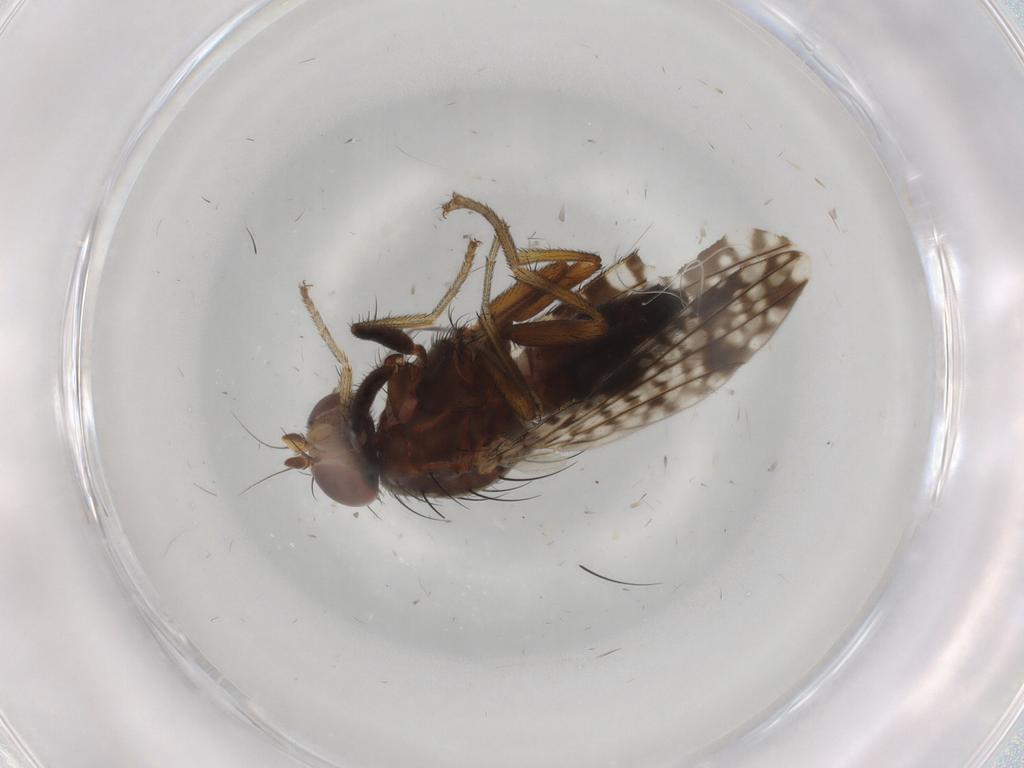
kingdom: Animalia
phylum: Arthropoda
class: Insecta
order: Diptera
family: Tephritidae
